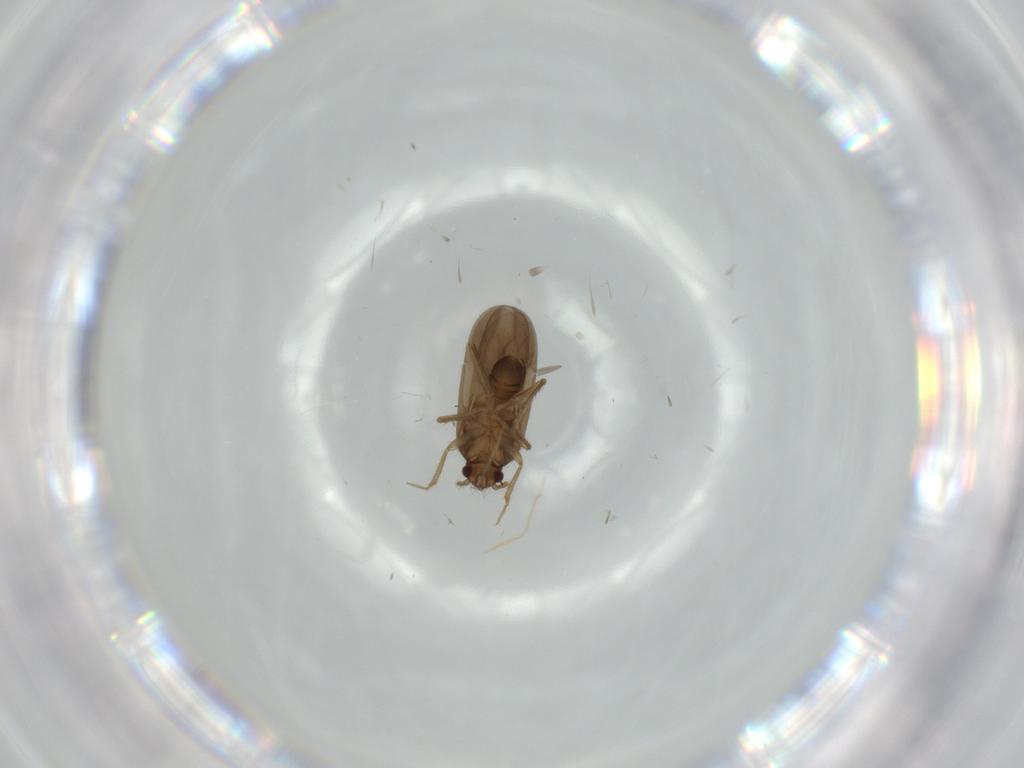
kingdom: Animalia
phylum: Arthropoda
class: Insecta
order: Hemiptera
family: Ceratocombidae
